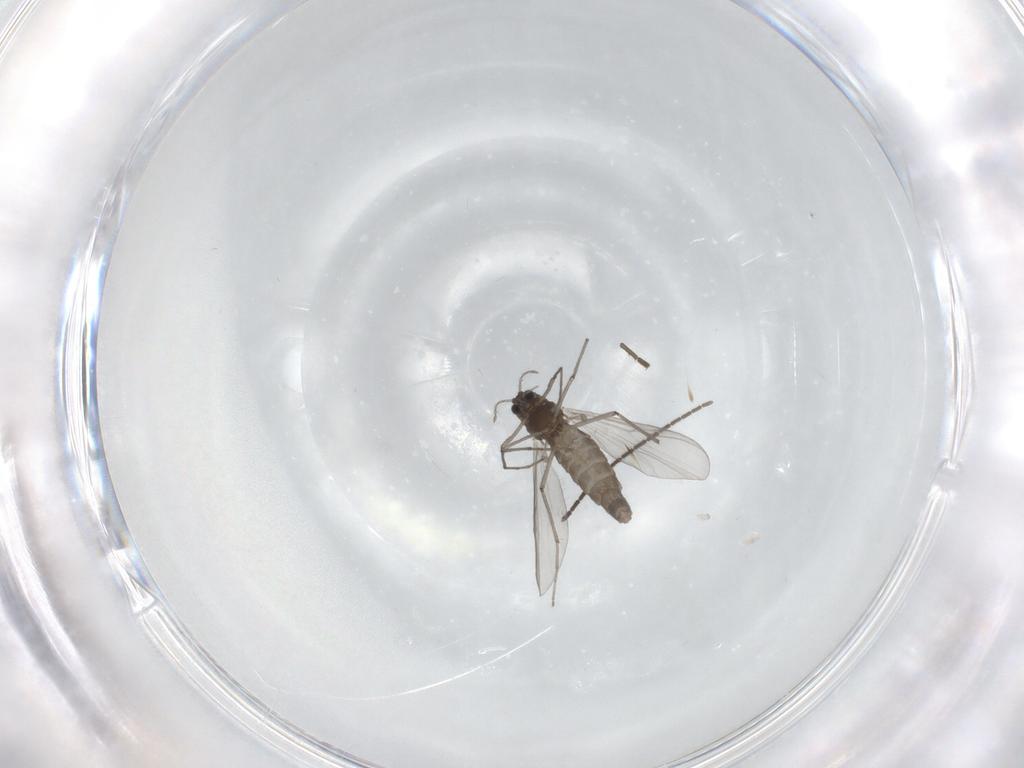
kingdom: Animalia
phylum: Arthropoda
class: Insecta
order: Diptera
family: Chironomidae
